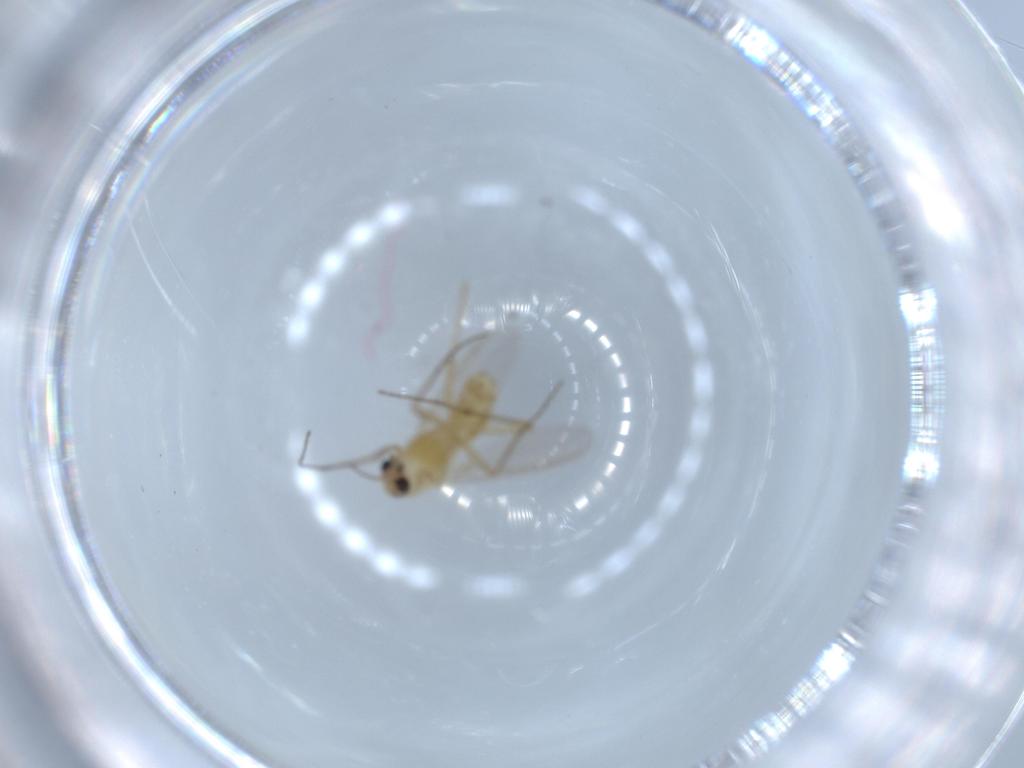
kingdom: Animalia
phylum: Arthropoda
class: Insecta
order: Diptera
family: Chironomidae
